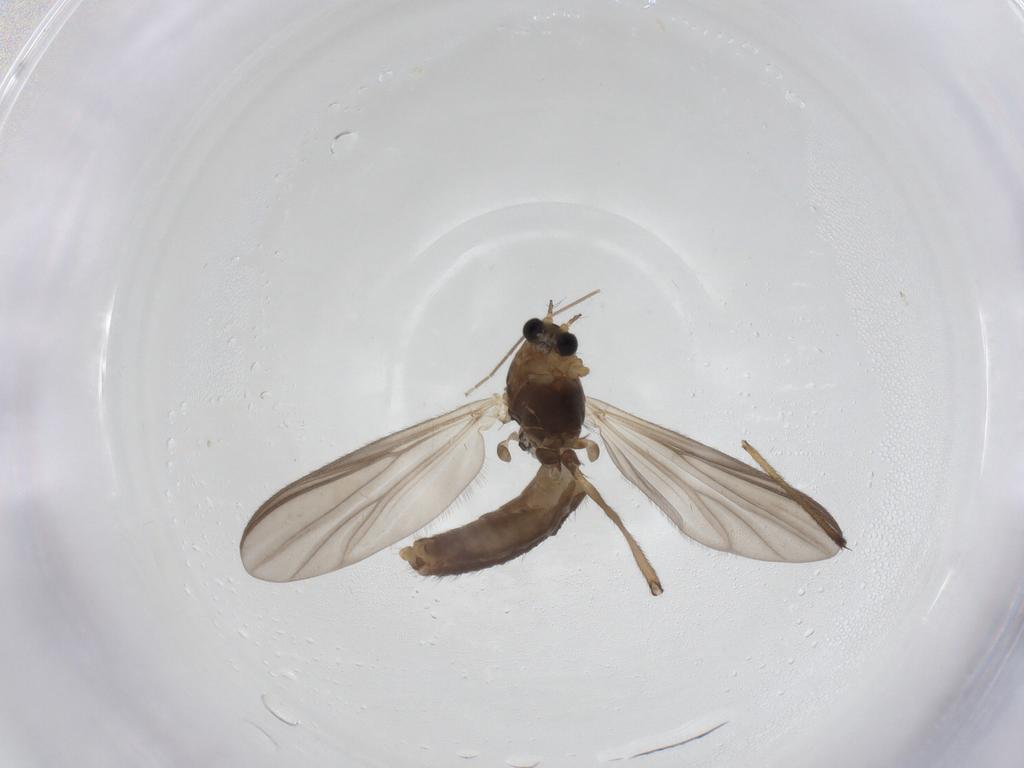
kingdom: Animalia
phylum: Arthropoda
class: Insecta
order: Diptera
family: Chironomidae
